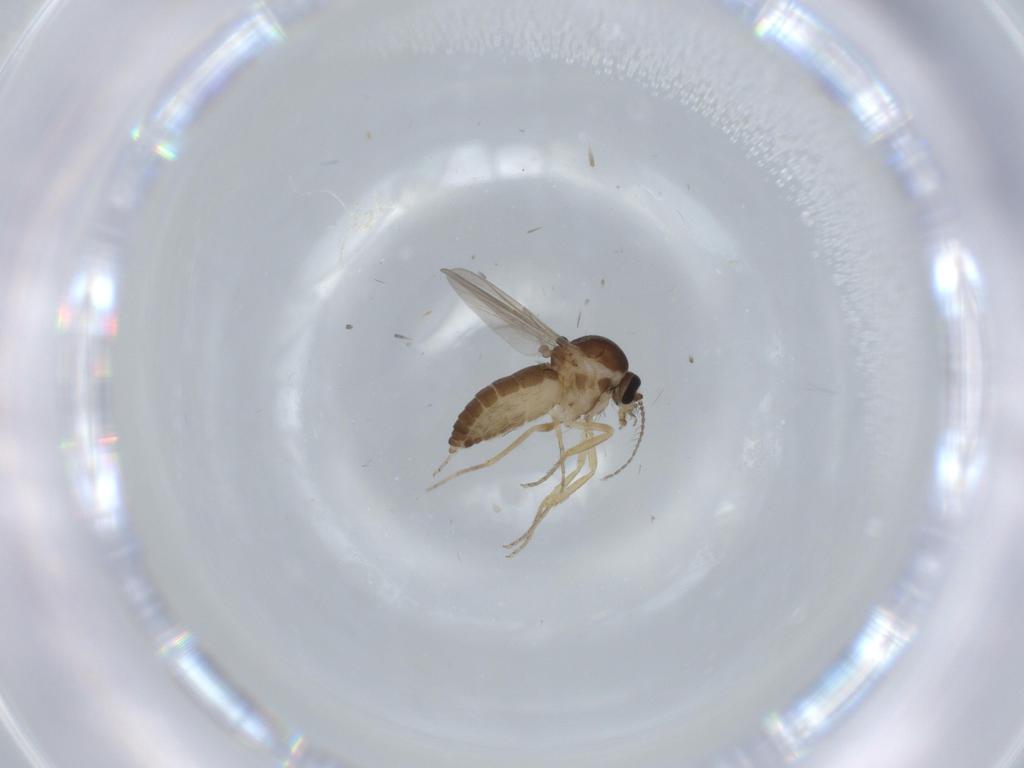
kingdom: Animalia
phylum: Arthropoda
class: Insecta
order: Diptera
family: Ceratopogonidae
